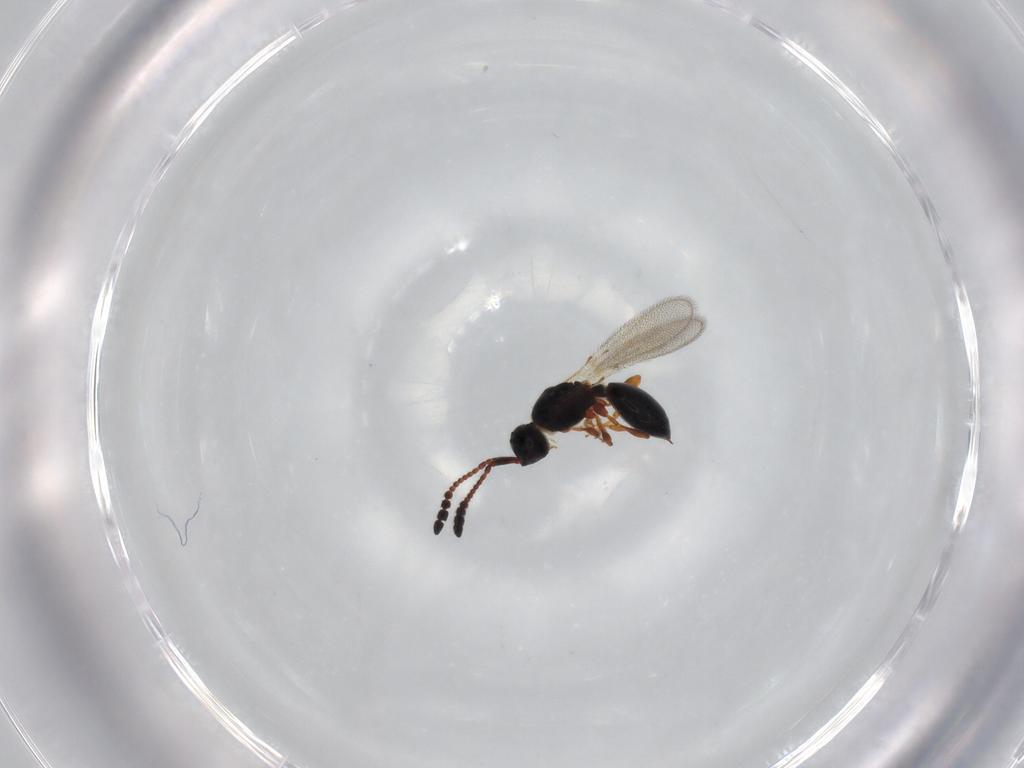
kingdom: Animalia
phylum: Arthropoda
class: Insecta
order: Hymenoptera
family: Diapriidae
